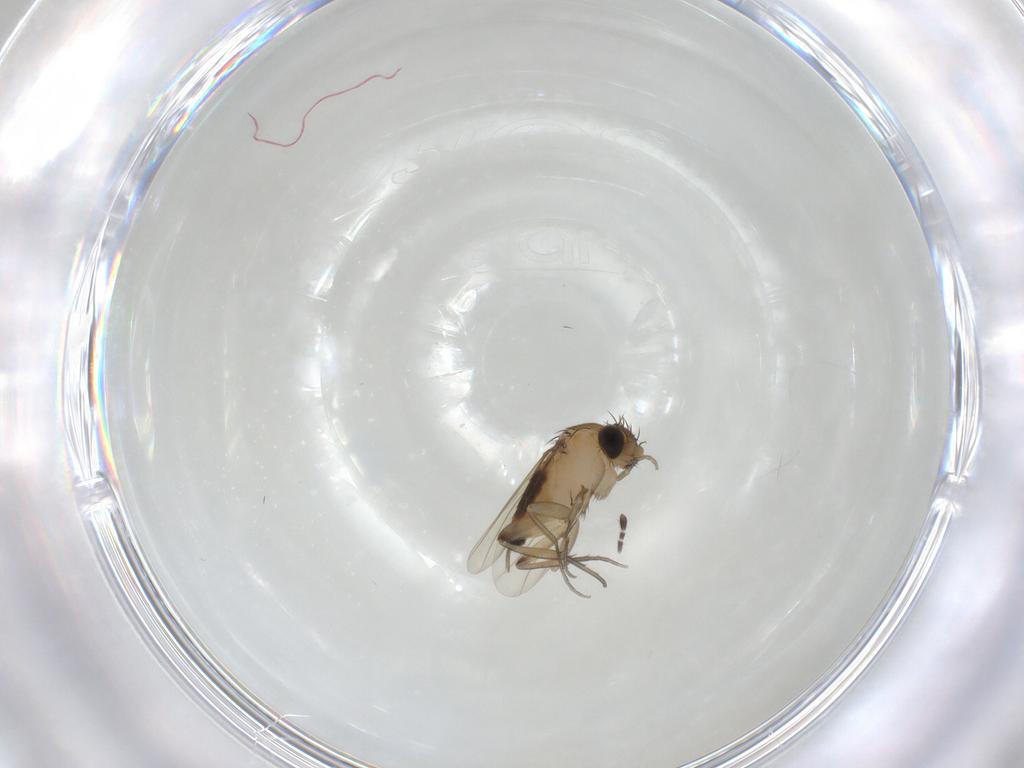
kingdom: Animalia
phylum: Arthropoda
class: Insecta
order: Diptera
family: Phoridae
